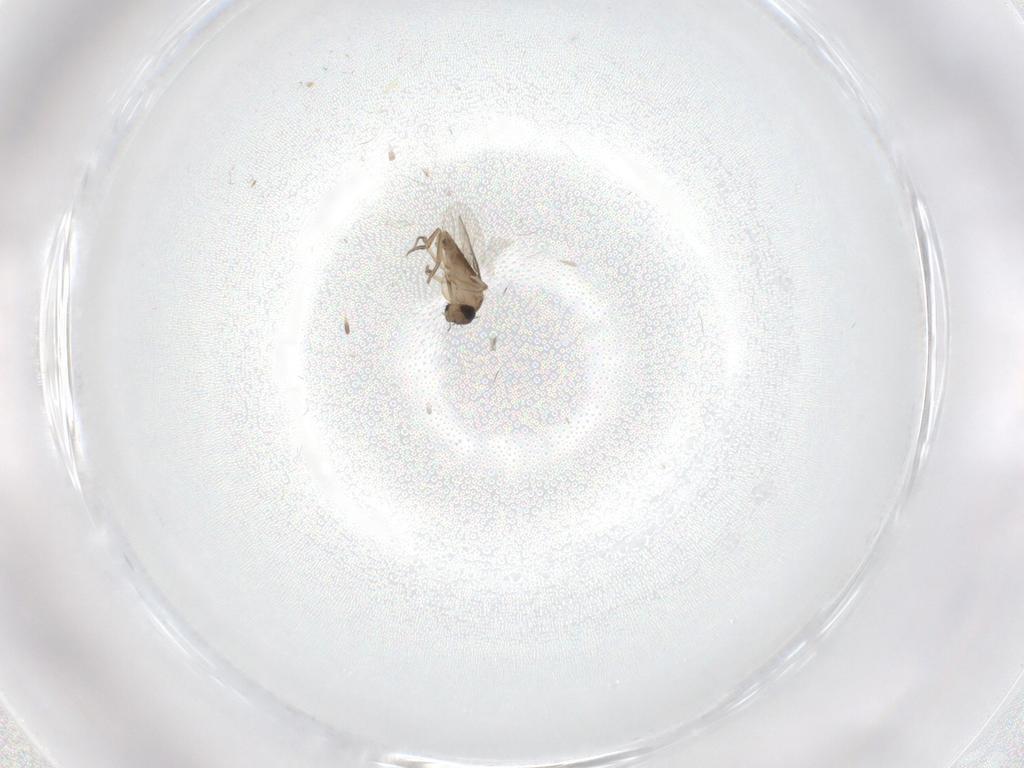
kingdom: Animalia
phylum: Arthropoda
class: Insecta
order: Diptera
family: Phoridae
